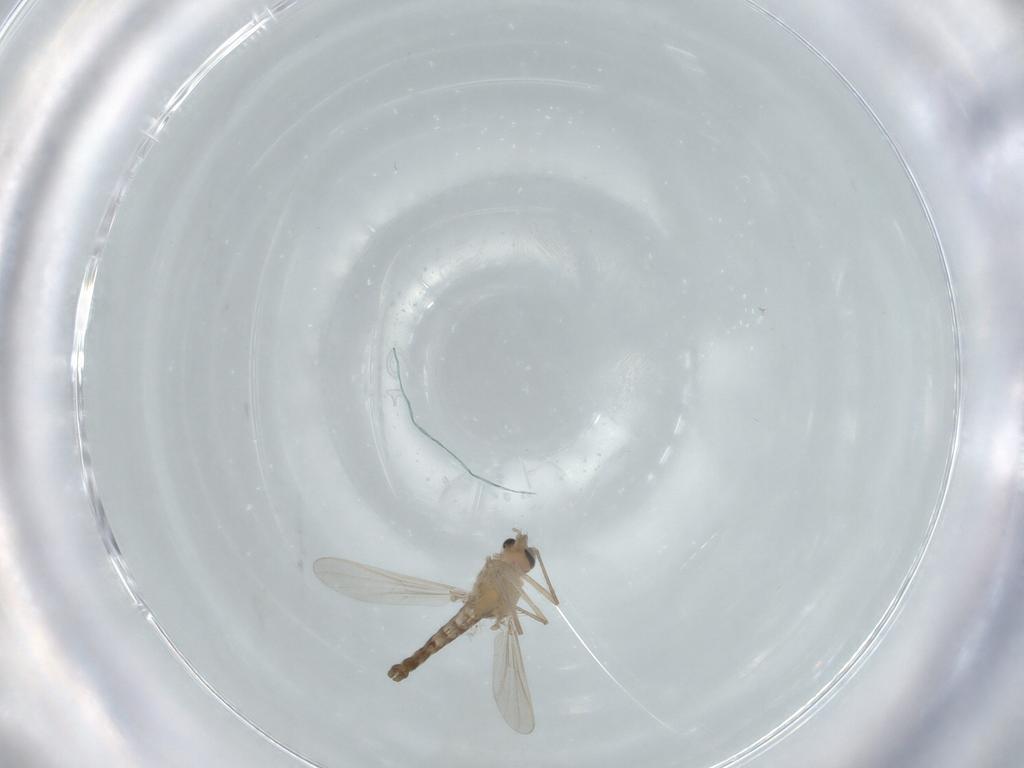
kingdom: Animalia
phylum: Arthropoda
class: Insecta
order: Diptera
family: Chironomidae
